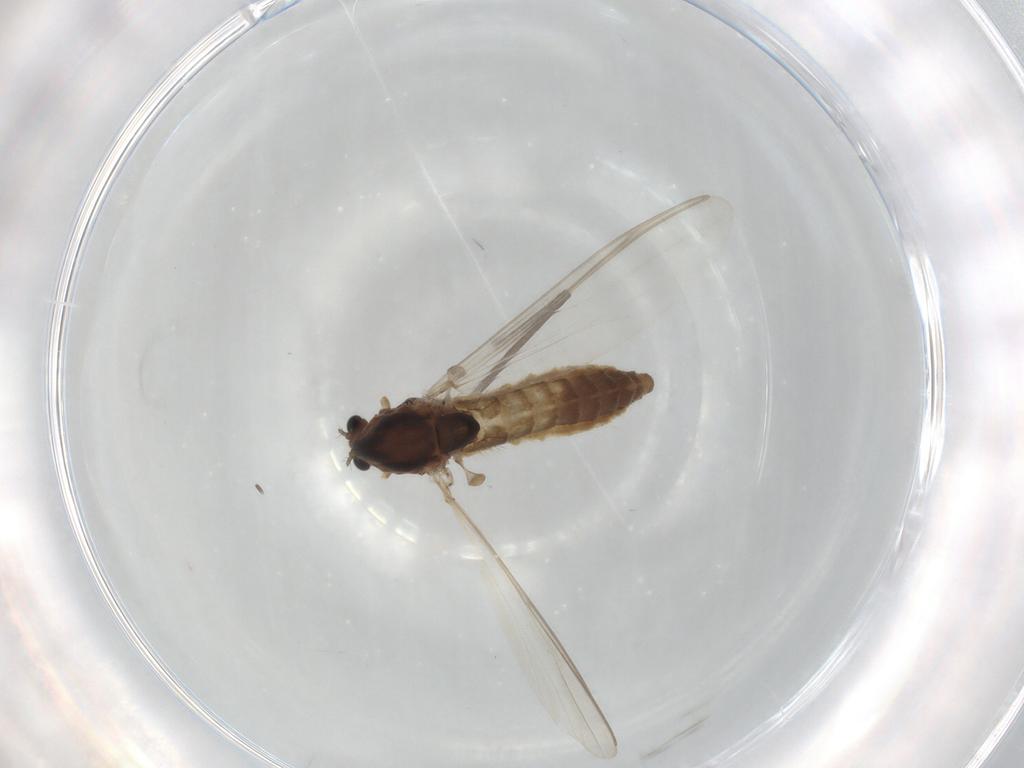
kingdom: Animalia
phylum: Arthropoda
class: Insecta
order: Diptera
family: Chironomidae
